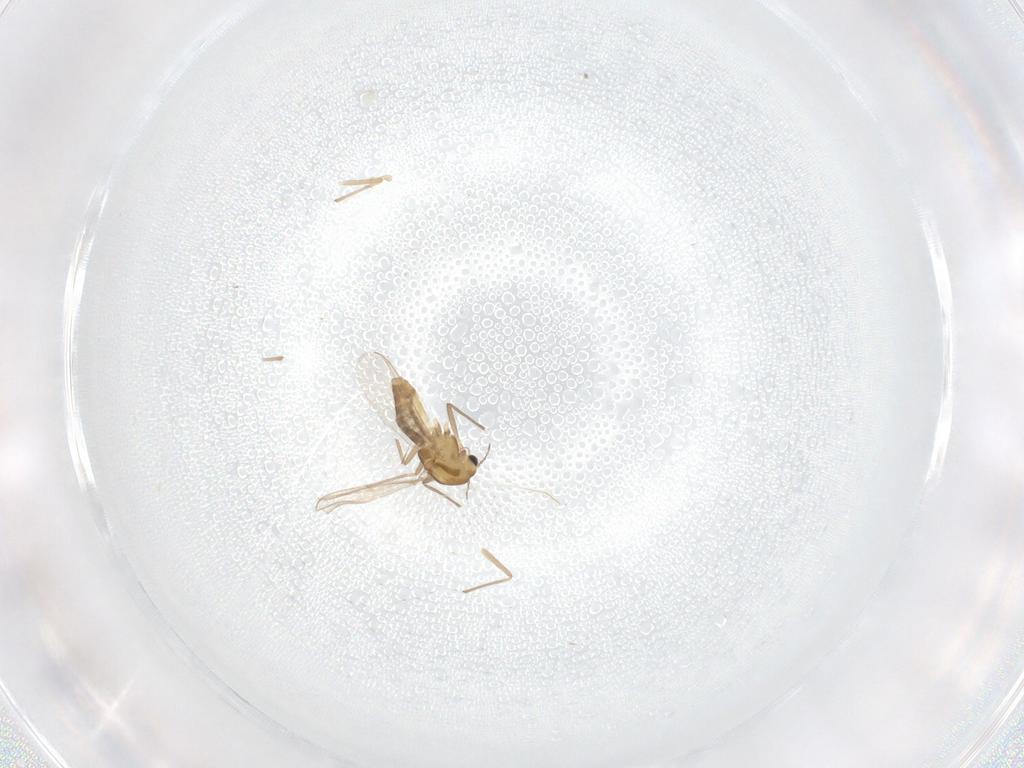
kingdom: Animalia
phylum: Arthropoda
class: Insecta
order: Diptera
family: Chironomidae
